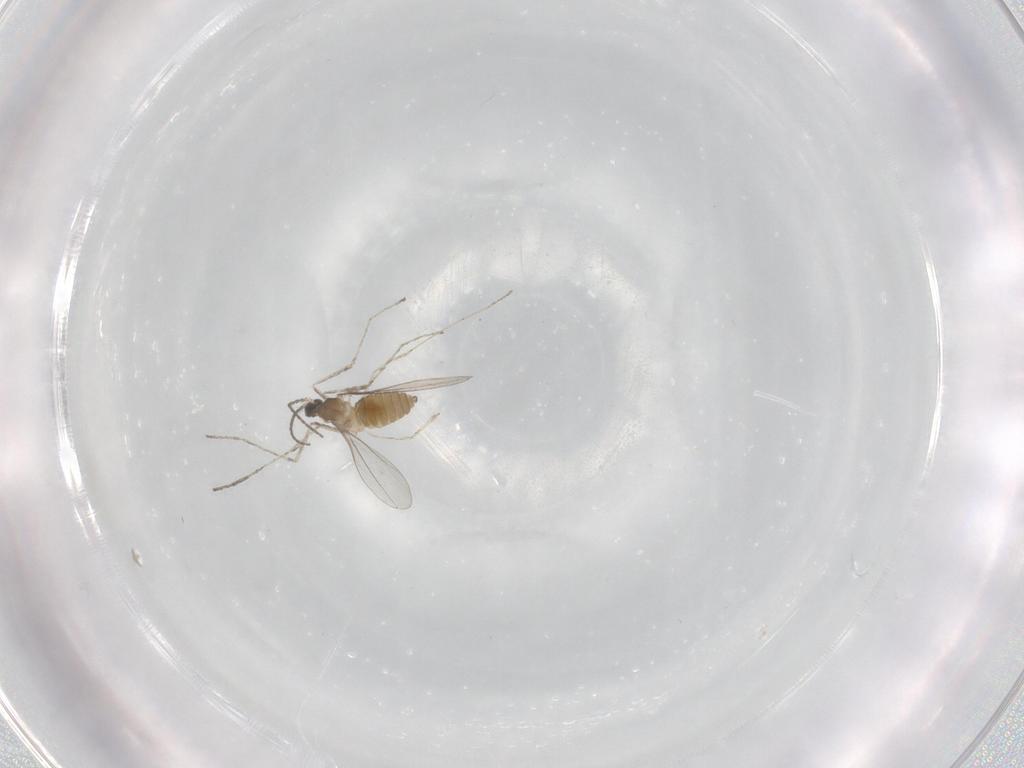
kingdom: Animalia
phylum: Arthropoda
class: Insecta
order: Diptera
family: Cecidomyiidae
